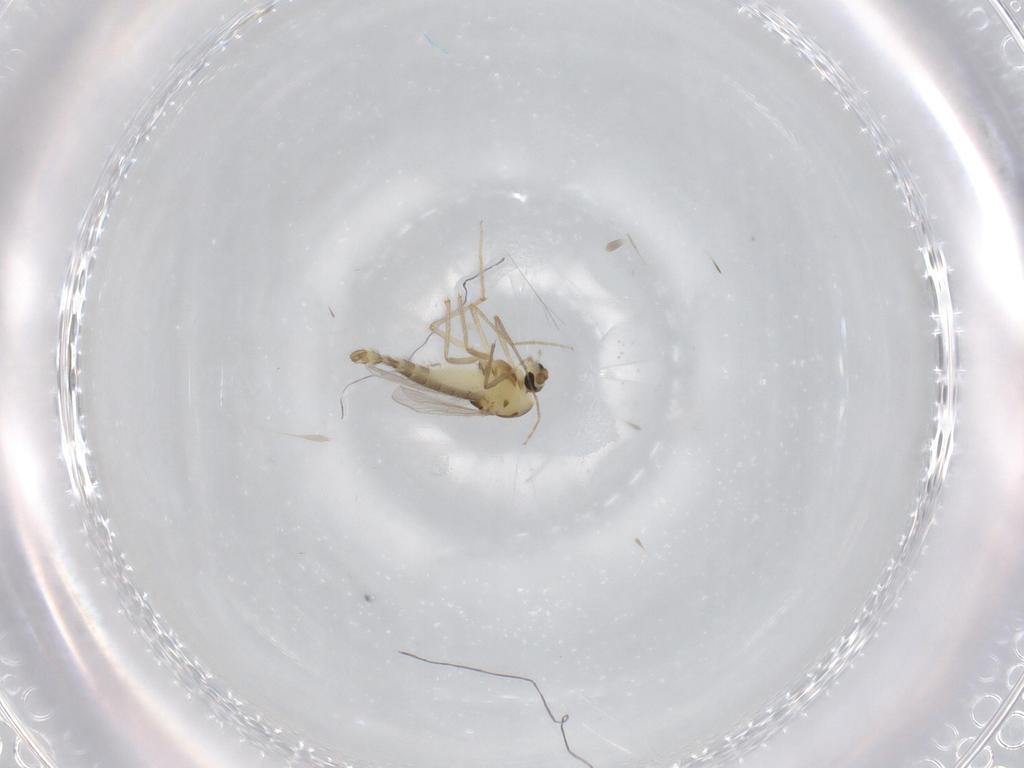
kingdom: Animalia
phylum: Arthropoda
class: Insecta
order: Diptera
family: Chironomidae
